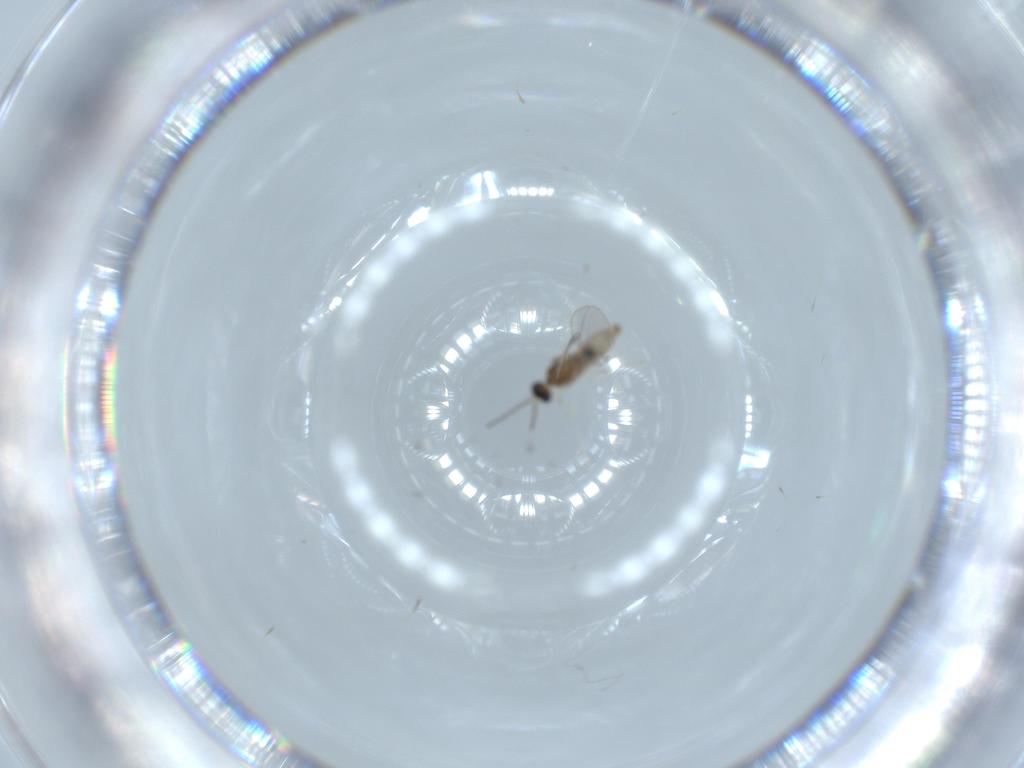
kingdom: Animalia
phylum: Arthropoda
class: Insecta
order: Diptera
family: Cecidomyiidae
